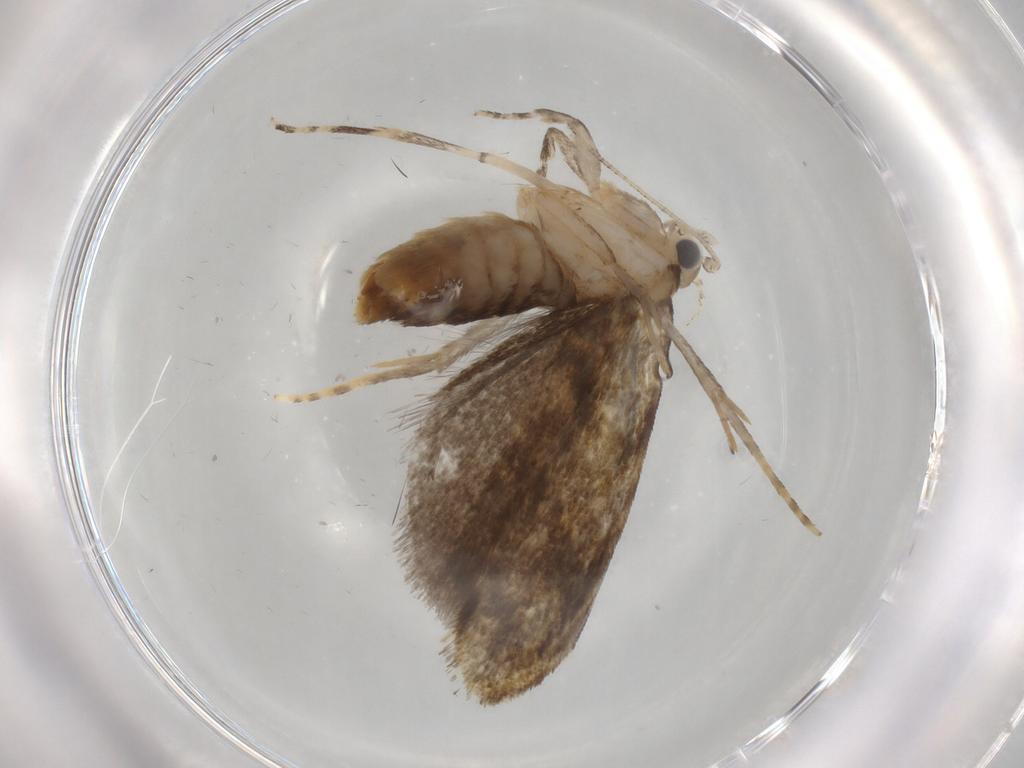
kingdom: Animalia
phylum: Arthropoda
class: Insecta
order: Lepidoptera
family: Tineidae
